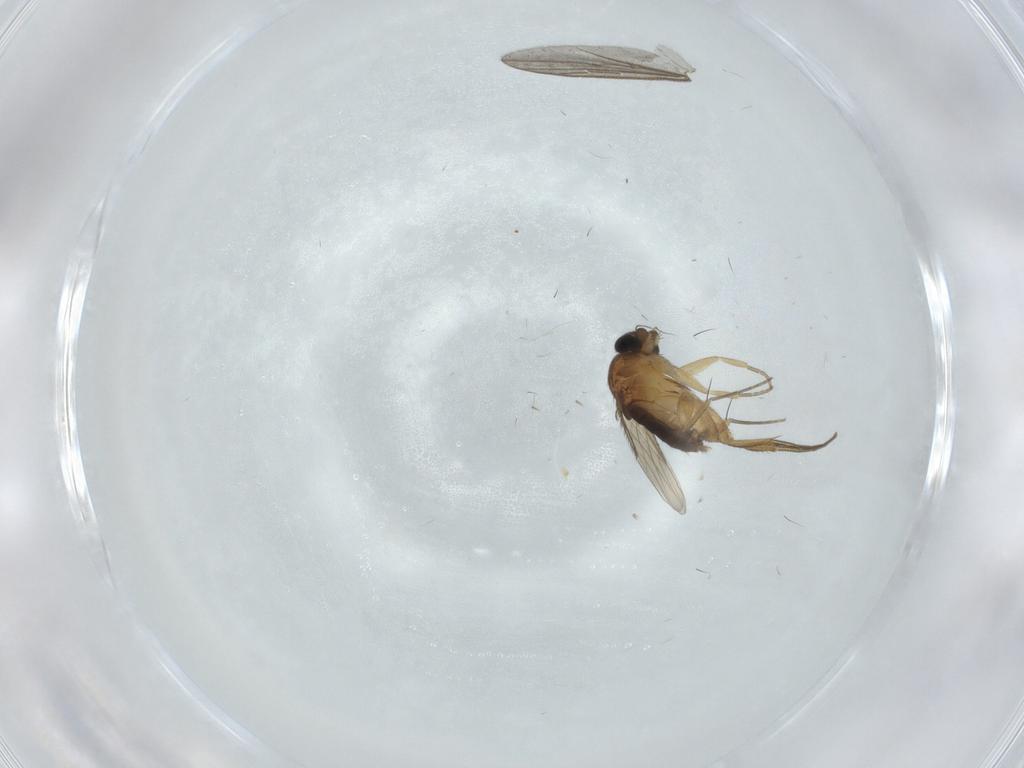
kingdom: Animalia
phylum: Arthropoda
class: Insecta
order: Diptera
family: Phoridae
